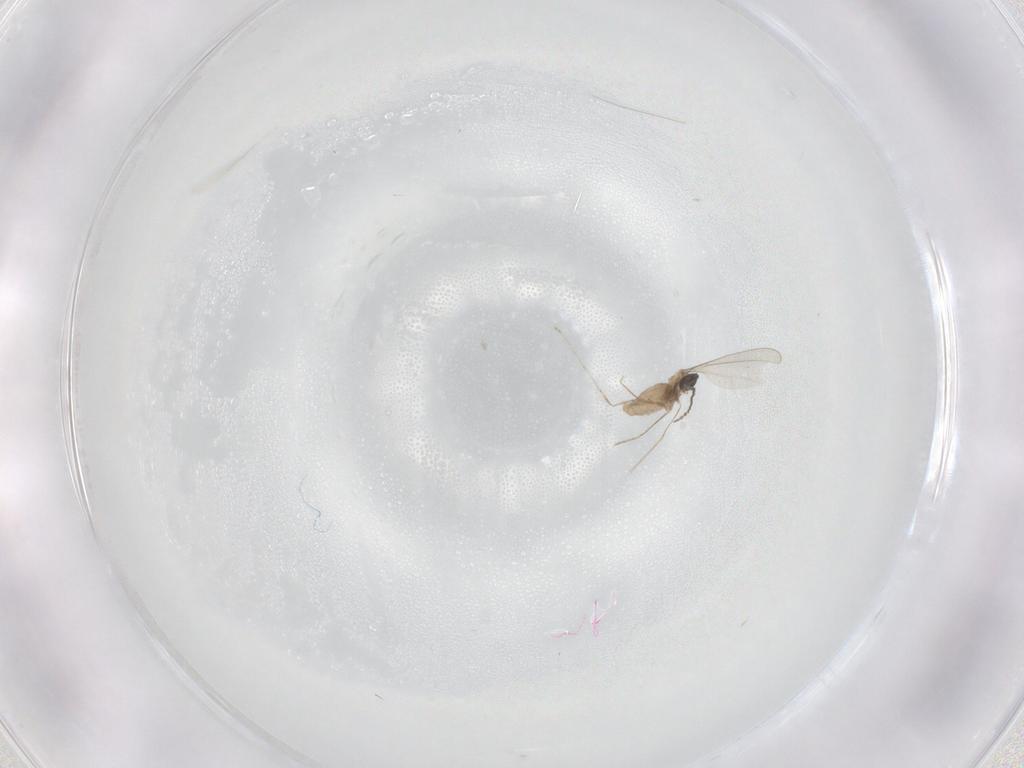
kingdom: Animalia
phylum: Arthropoda
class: Insecta
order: Diptera
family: Cecidomyiidae
